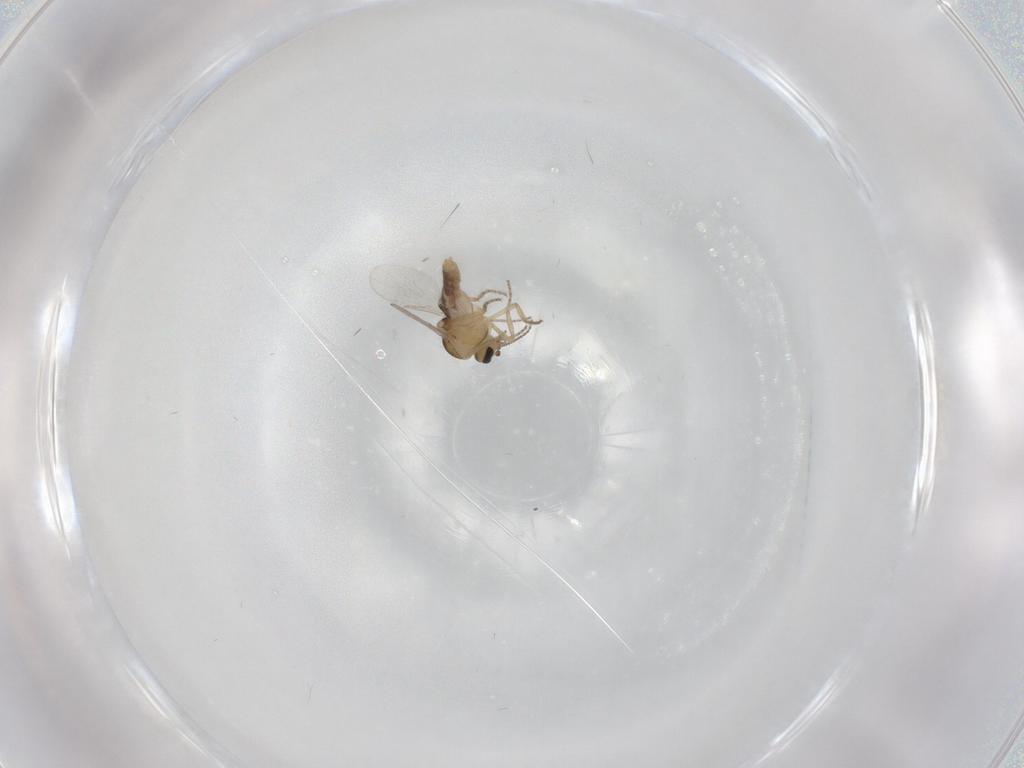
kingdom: Animalia
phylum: Arthropoda
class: Insecta
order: Diptera
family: Ceratopogonidae
